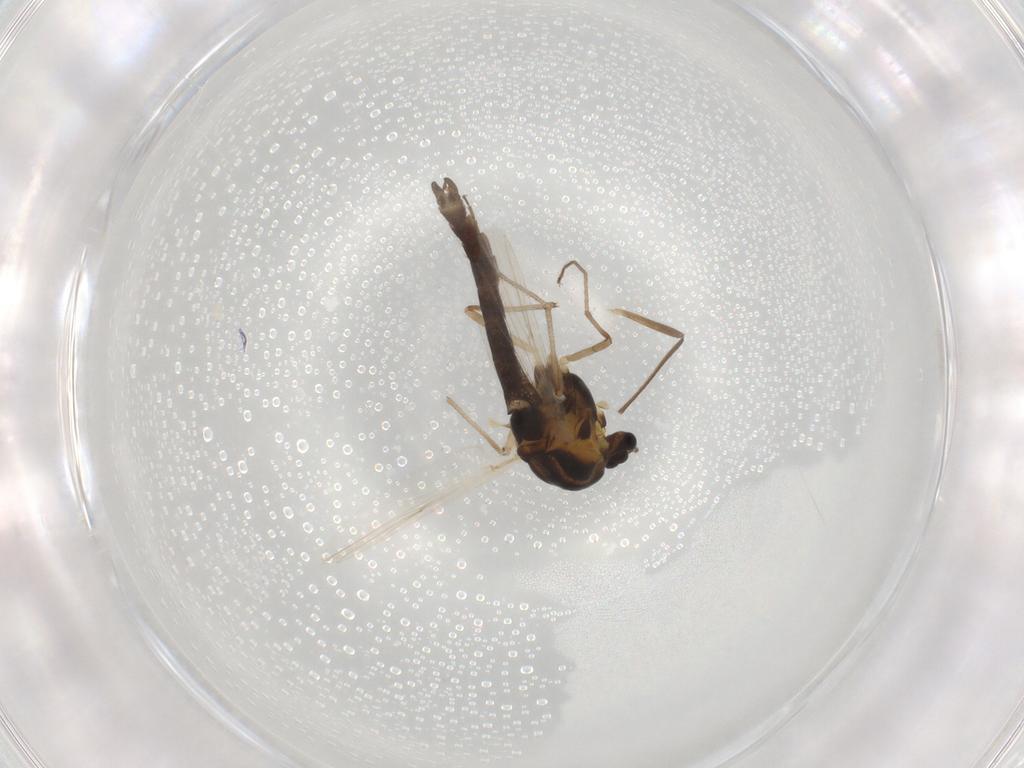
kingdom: Animalia
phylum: Arthropoda
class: Insecta
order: Diptera
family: Chironomidae
